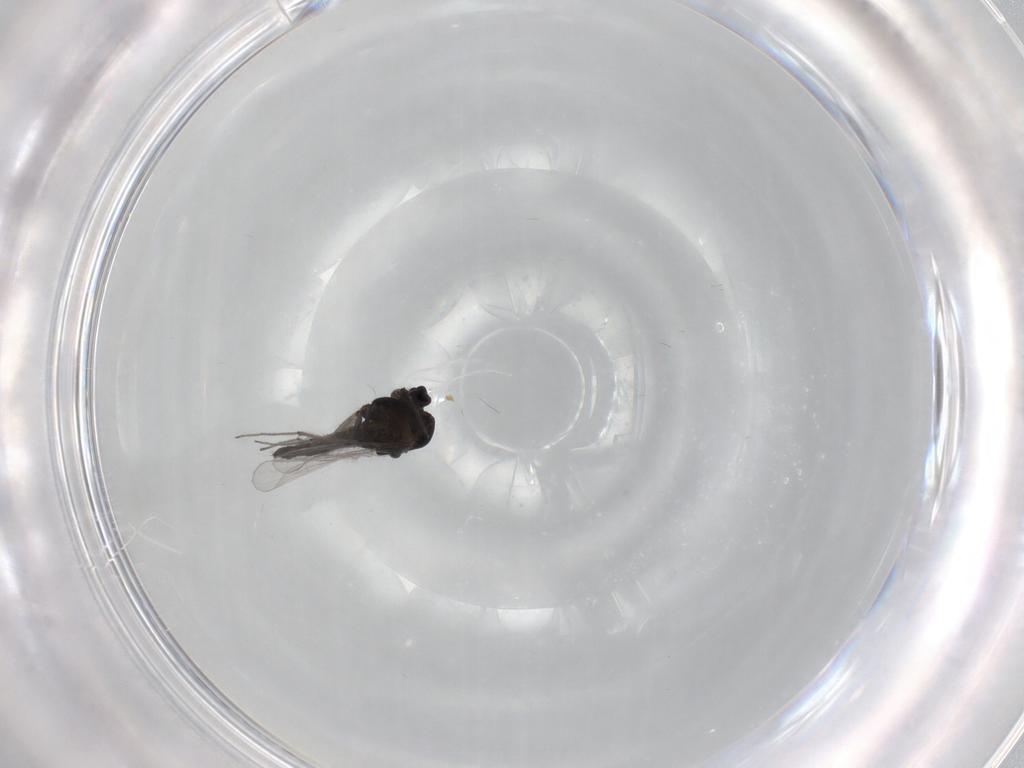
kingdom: Animalia
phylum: Arthropoda
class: Insecta
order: Diptera
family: Chironomidae
